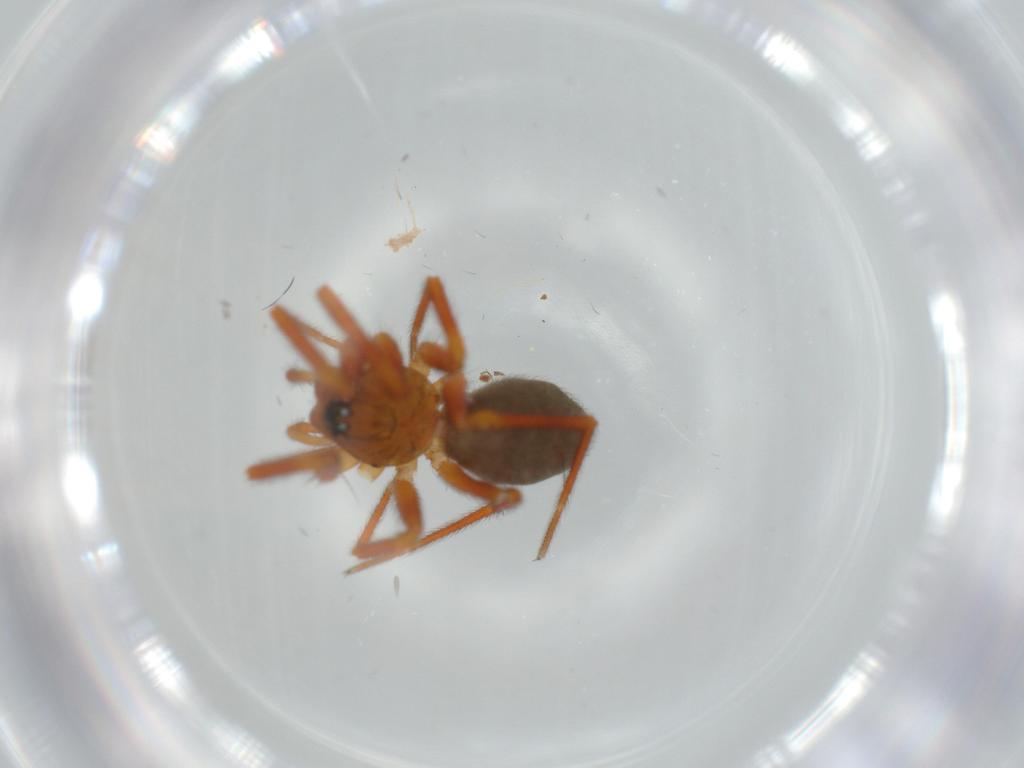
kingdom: Animalia
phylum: Arthropoda
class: Arachnida
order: Araneae
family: Linyphiidae
